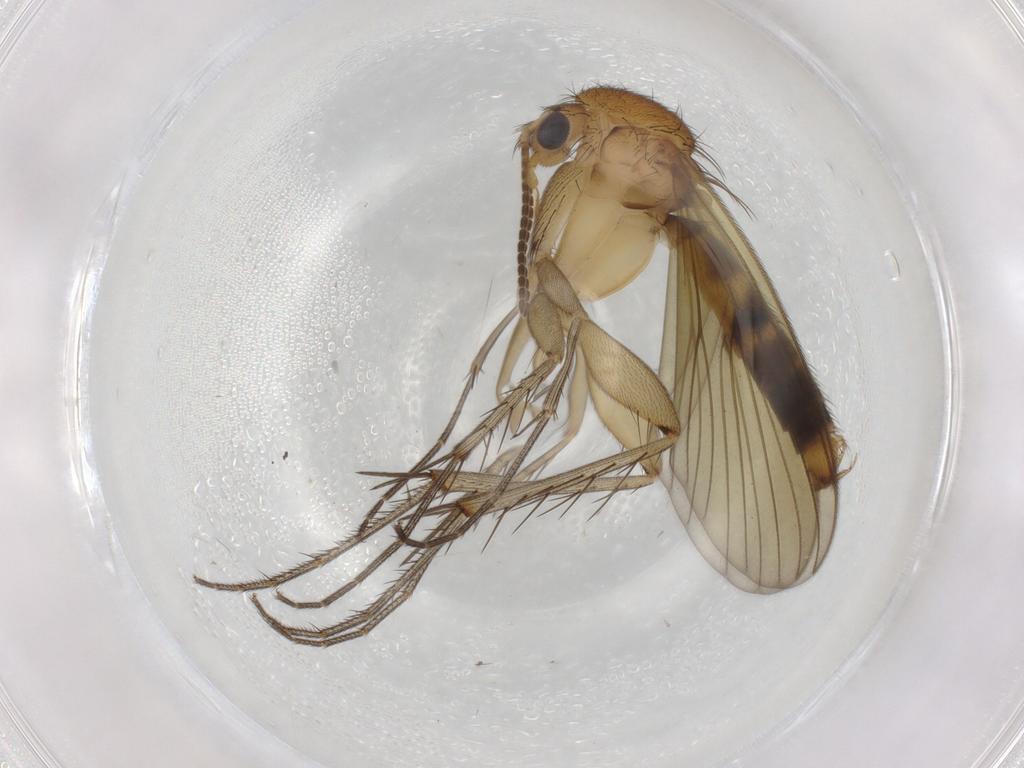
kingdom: Animalia
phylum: Arthropoda
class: Insecta
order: Diptera
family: Mycetophilidae
